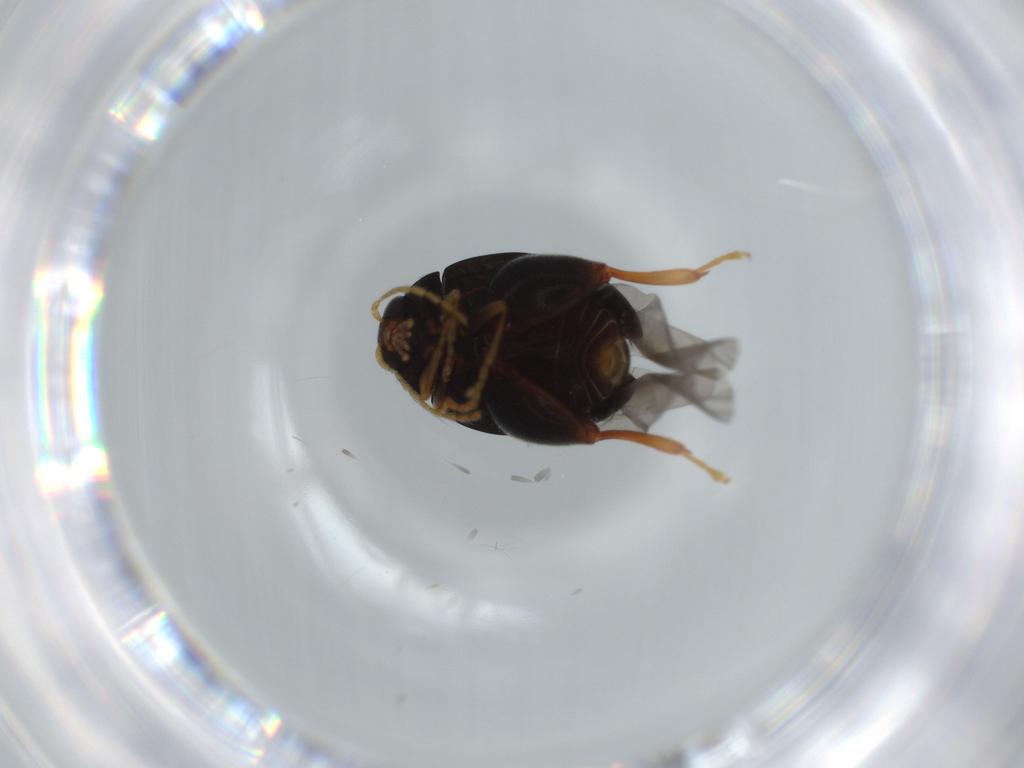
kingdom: Animalia
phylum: Arthropoda
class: Insecta
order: Coleoptera
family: Chrysomelidae
